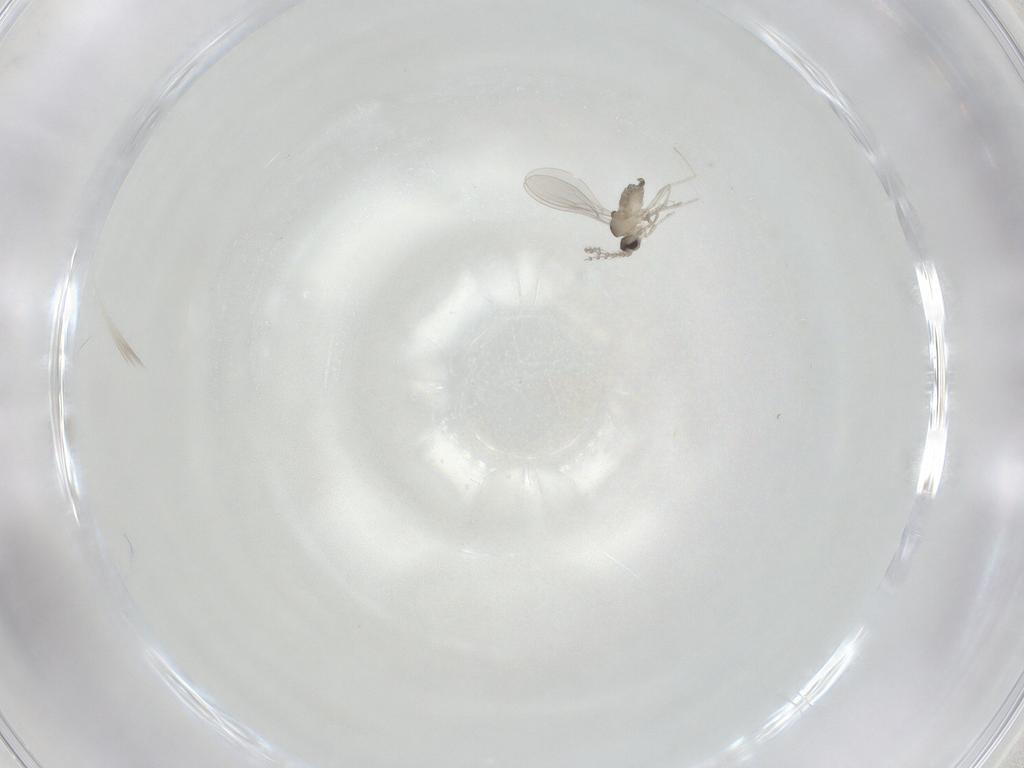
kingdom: Animalia
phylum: Arthropoda
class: Insecta
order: Diptera
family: Cecidomyiidae
